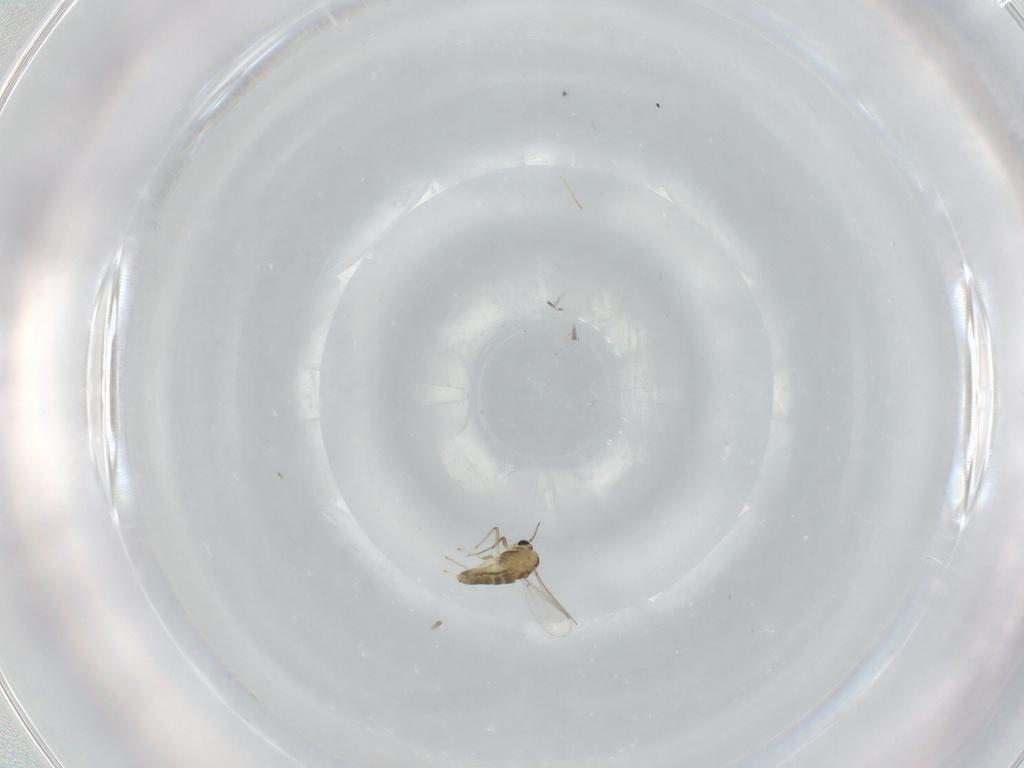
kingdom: Animalia
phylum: Arthropoda
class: Insecta
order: Diptera
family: Chironomidae
